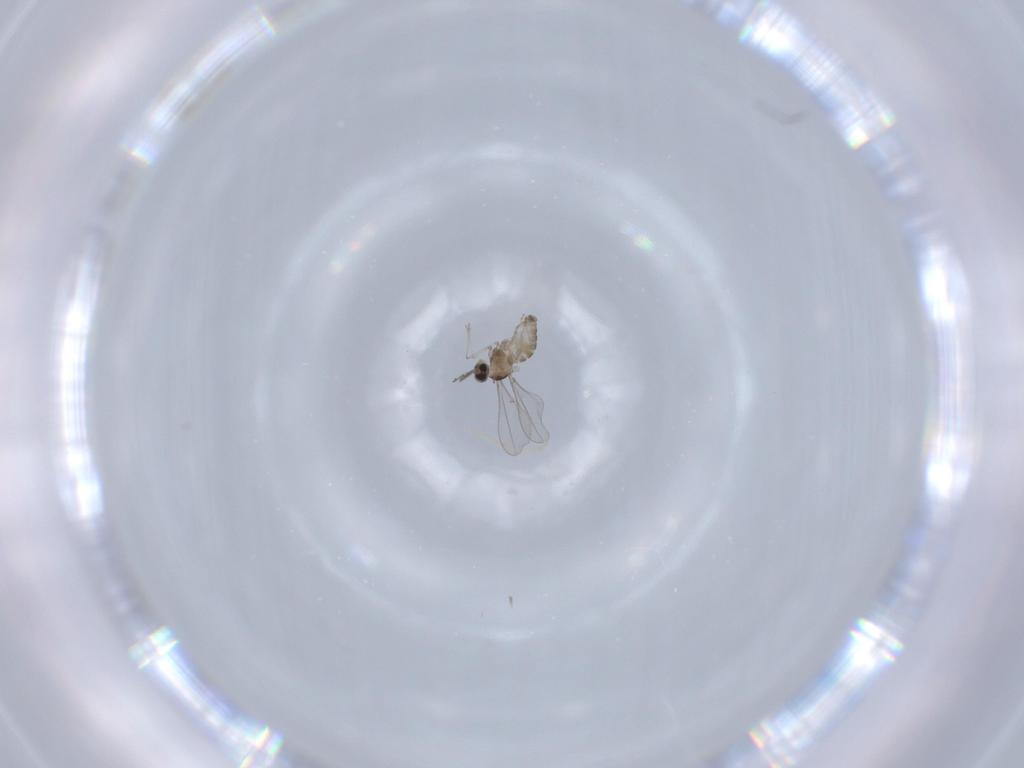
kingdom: Animalia
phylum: Arthropoda
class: Insecta
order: Diptera
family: Cecidomyiidae
